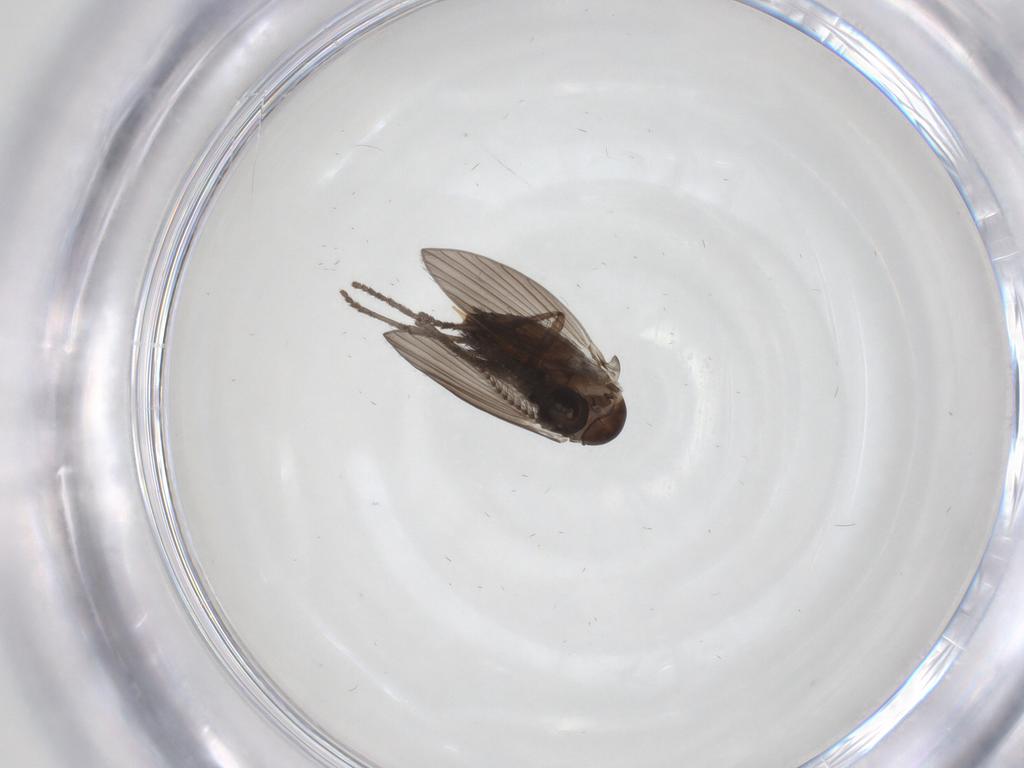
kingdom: Animalia
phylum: Arthropoda
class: Insecta
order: Diptera
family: Psychodidae
